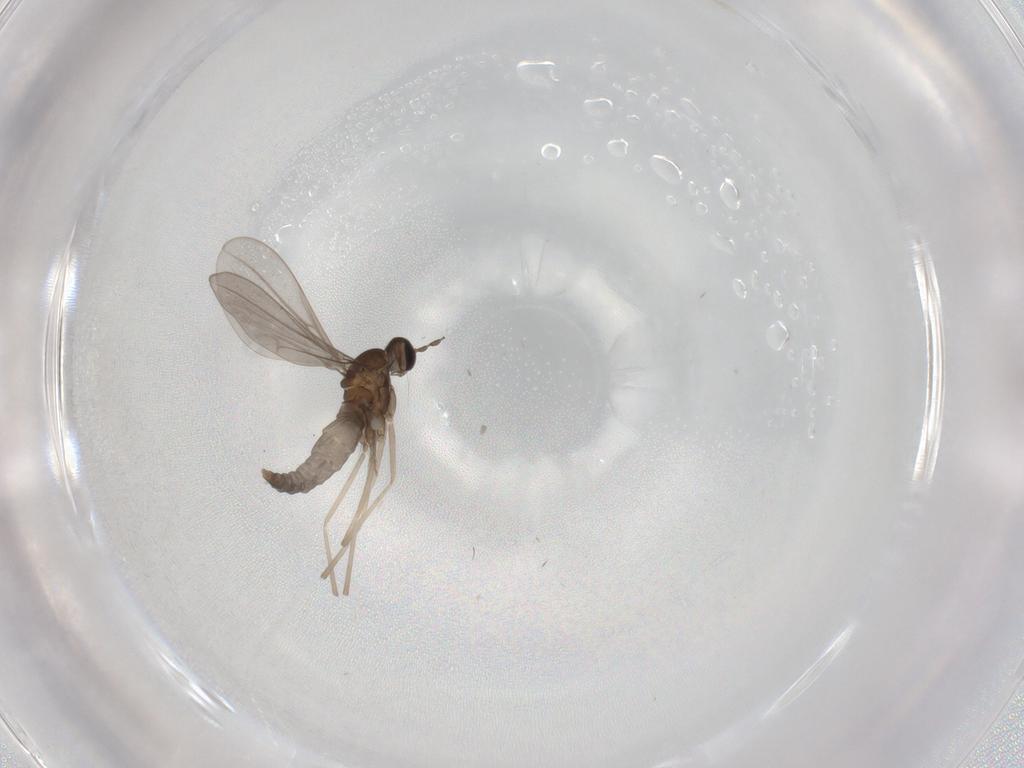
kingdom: Animalia
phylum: Arthropoda
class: Insecta
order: Diptera
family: Cecidomyiidae
